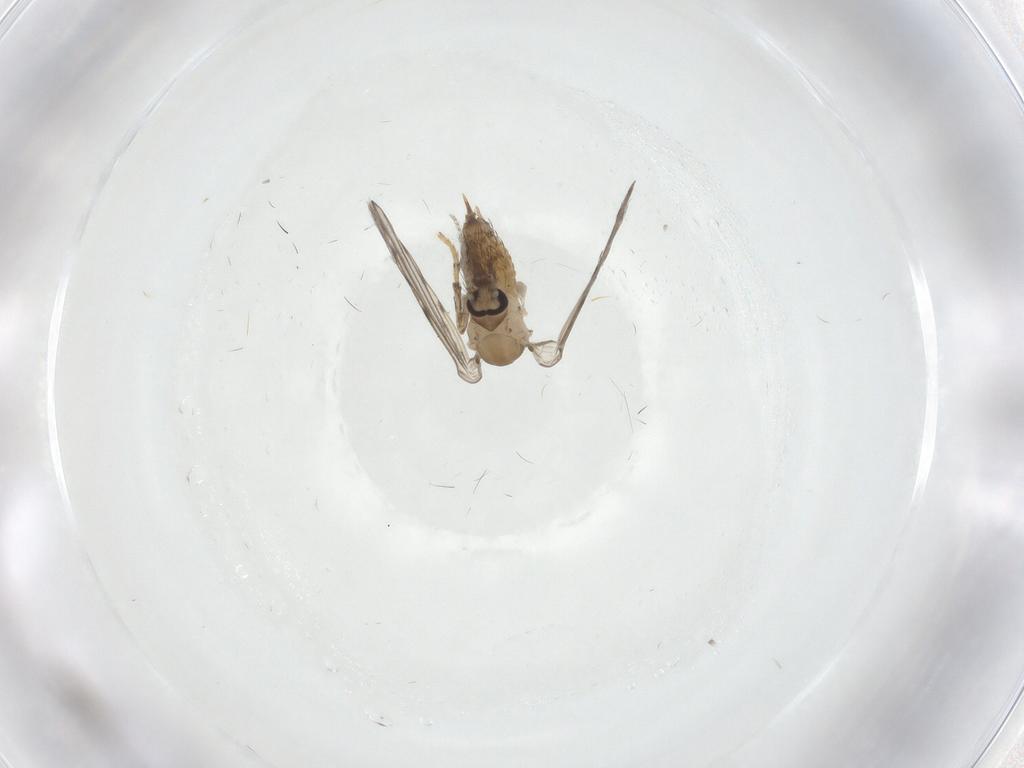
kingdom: Animalia
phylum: Arthropoda
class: Insecta
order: Diptera
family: Psychodidae
